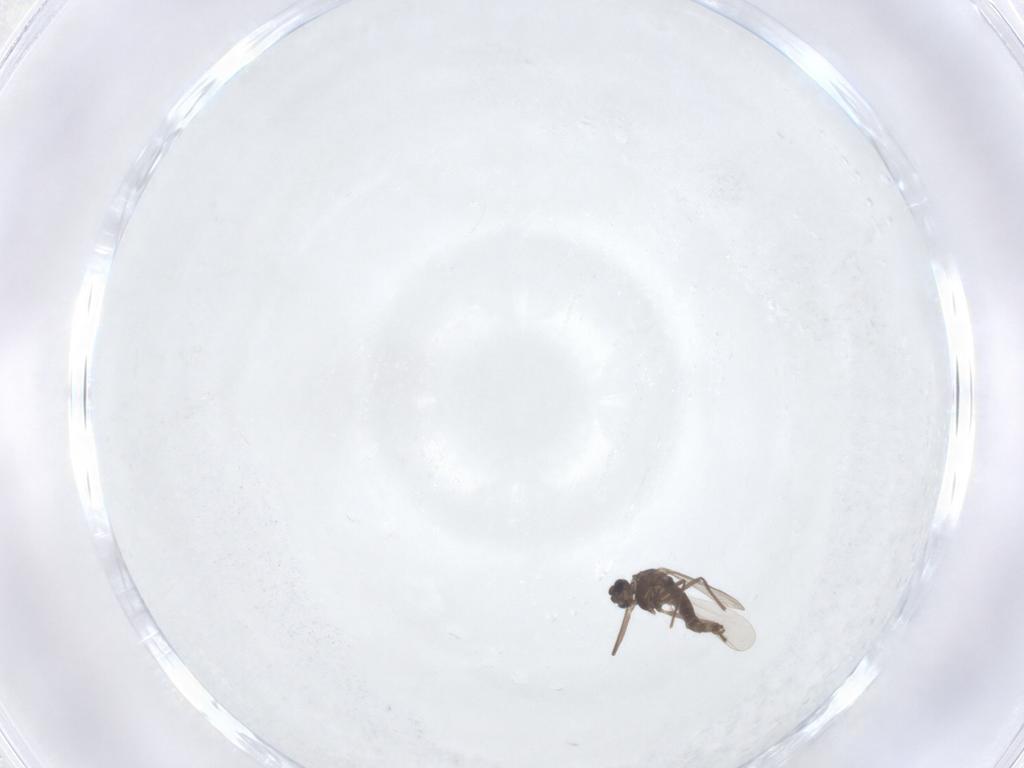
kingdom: Animalia
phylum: Arthropoda
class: Insecta
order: Diptera
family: Chironomidae
